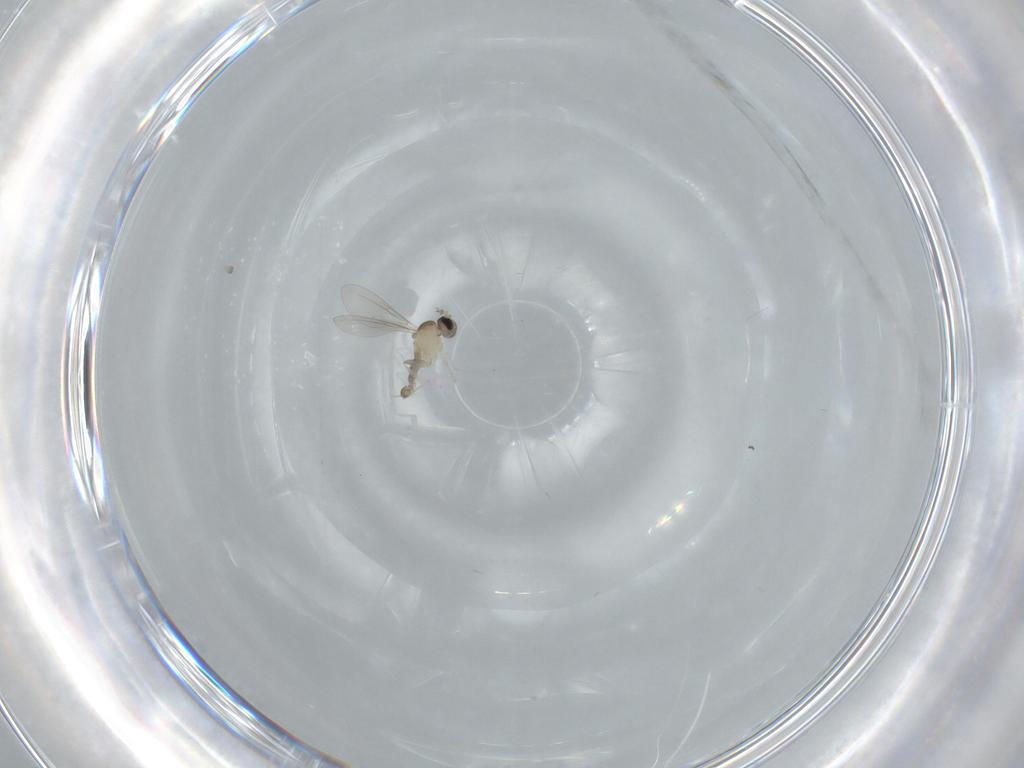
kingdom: Animalia
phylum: Arthropoda
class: Insecta
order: Diptera
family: Cecidomyiidae
